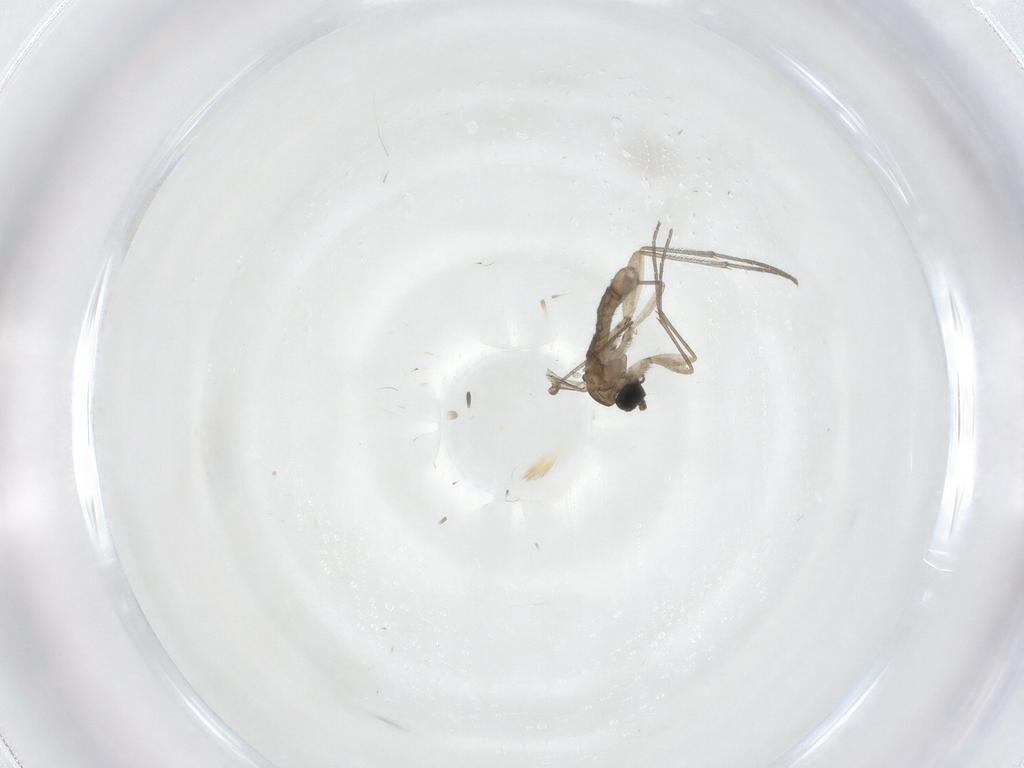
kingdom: Animalia
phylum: Arthropoda
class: Insecta
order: Diptera
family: Sciaridae
